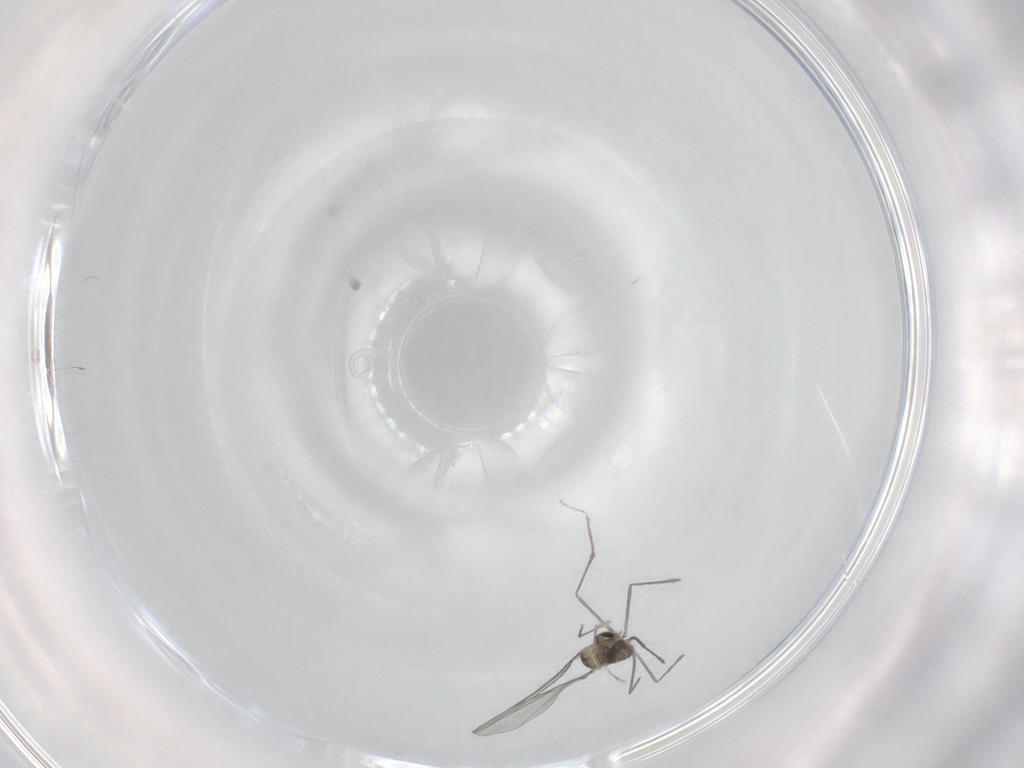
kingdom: Animalia
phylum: Arthropoda
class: Insecta
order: Diptera
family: Cecidomyiidae
